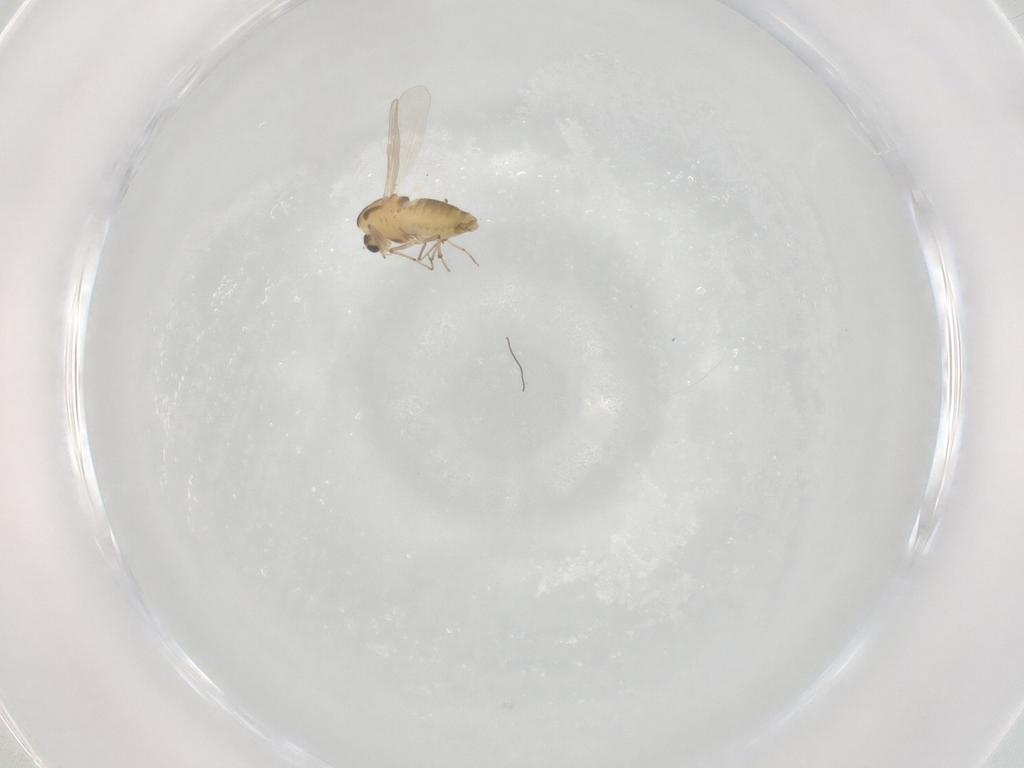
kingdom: Animalia
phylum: Arthropoda
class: Insecta
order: Diptera
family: Chironomidae
